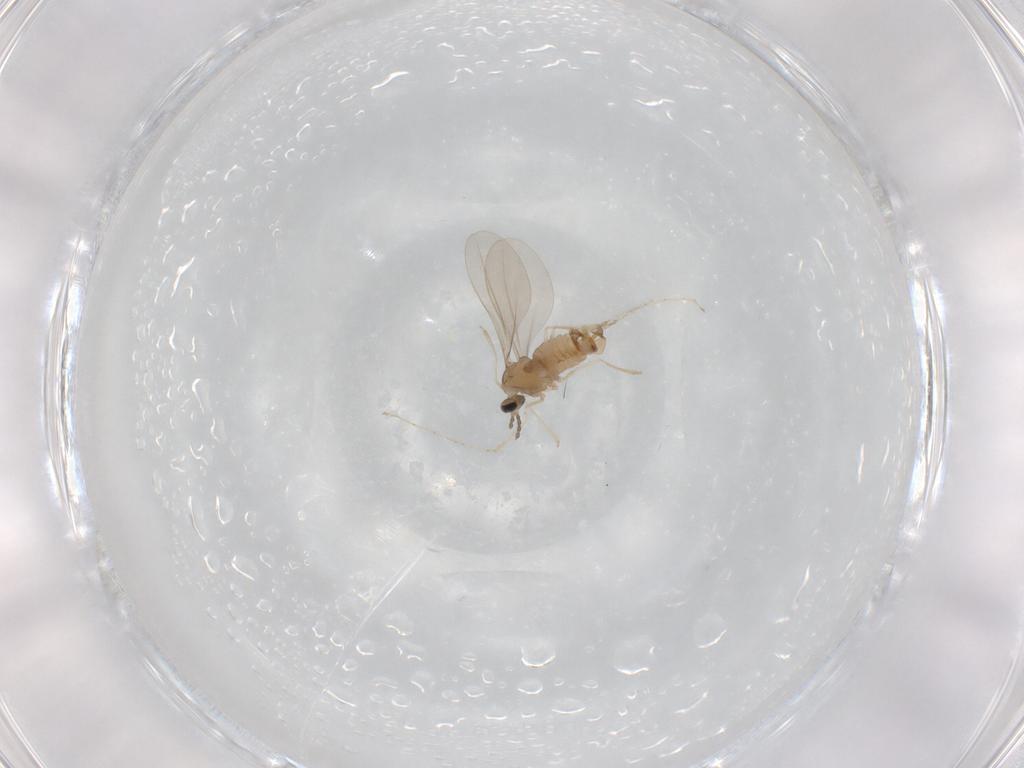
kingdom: Animalia
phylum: Arthropoda
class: Insecta
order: Diptera
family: Cecidomyiidae
